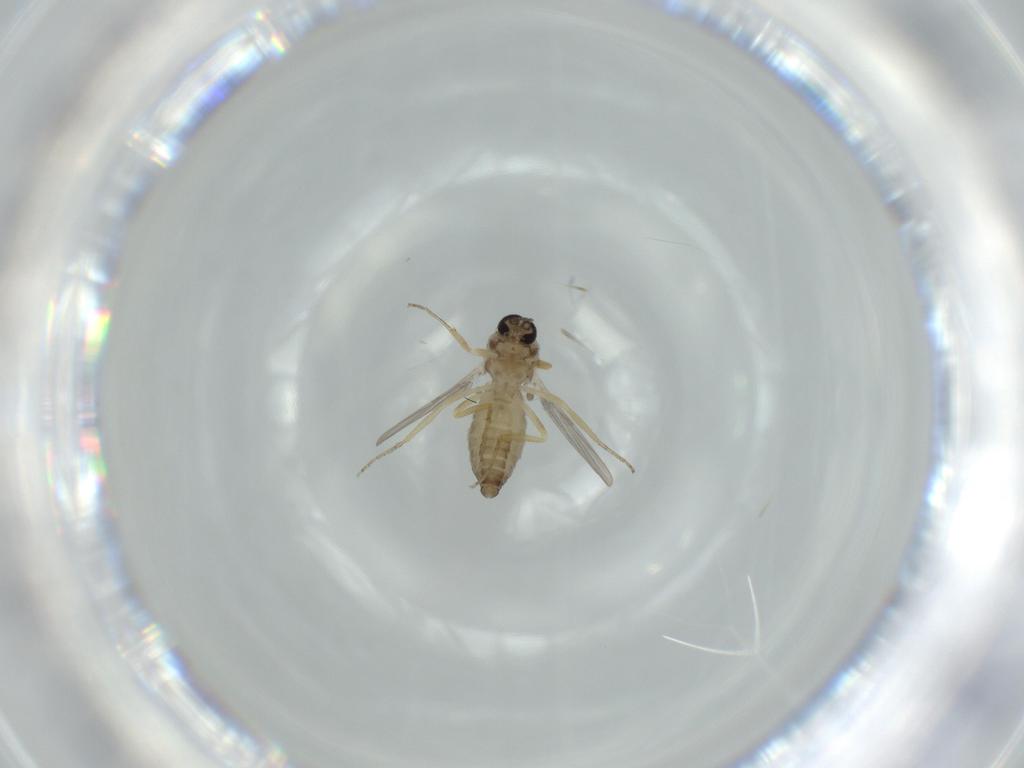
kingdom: Animalia
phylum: Arthropoda
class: Insecta
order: Diptera
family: Ceratopogonidae
